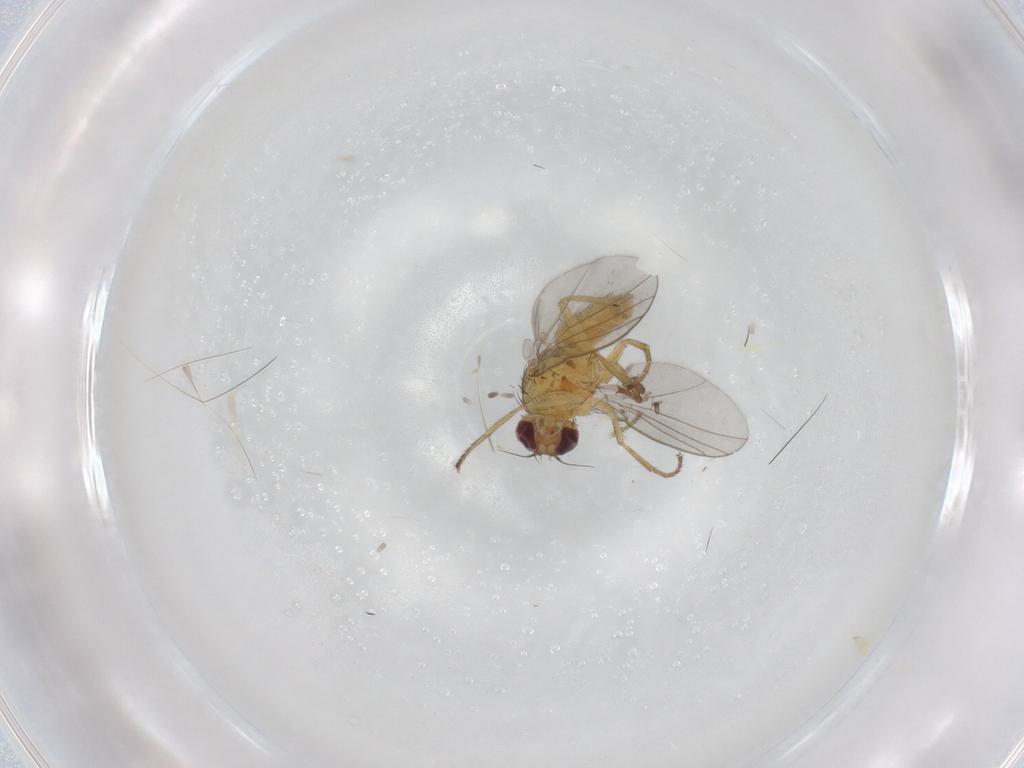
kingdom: Animalia
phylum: Arthropoda
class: Insecta
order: Diptera
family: Agromyzidae
